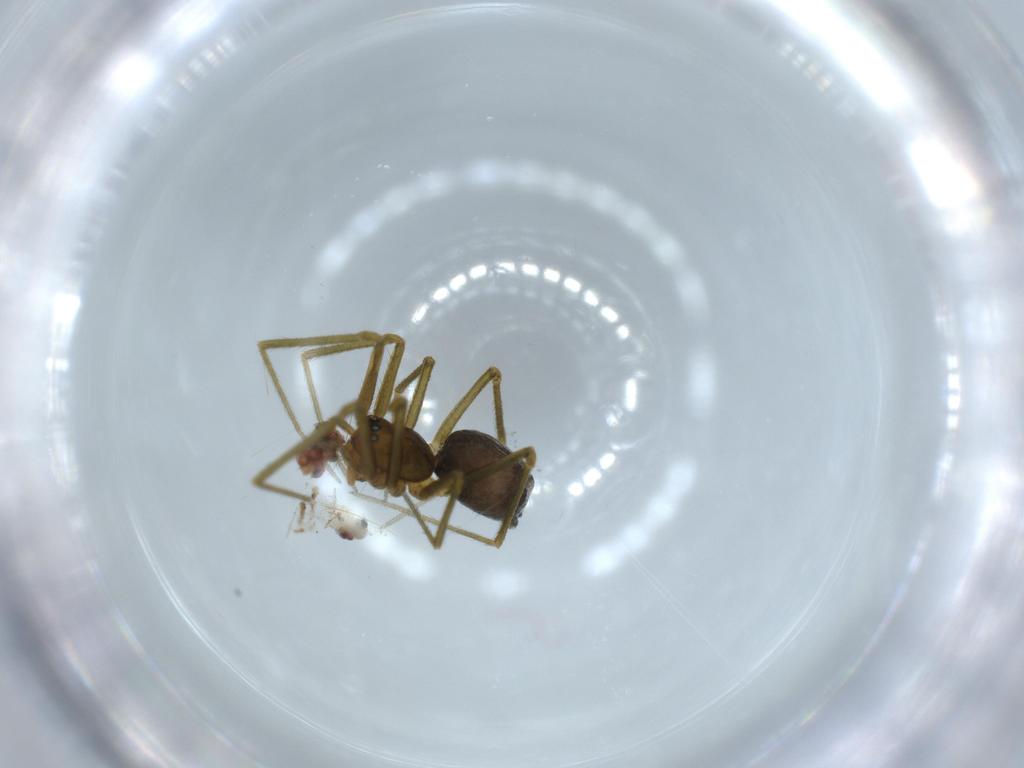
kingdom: Animalia
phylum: Arthropoda
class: Arachnida
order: Araneae
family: Linyphiidae
